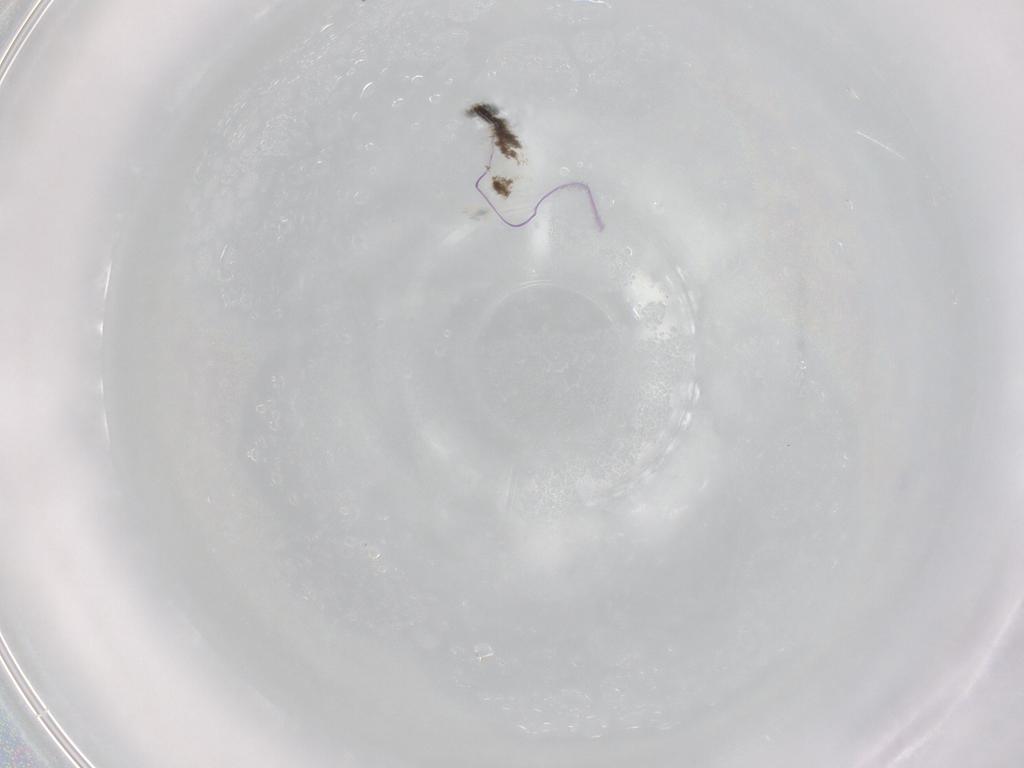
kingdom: Animalia
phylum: Arthropoda
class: Collembola
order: Entomobryomorpha
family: Entomobryidae
